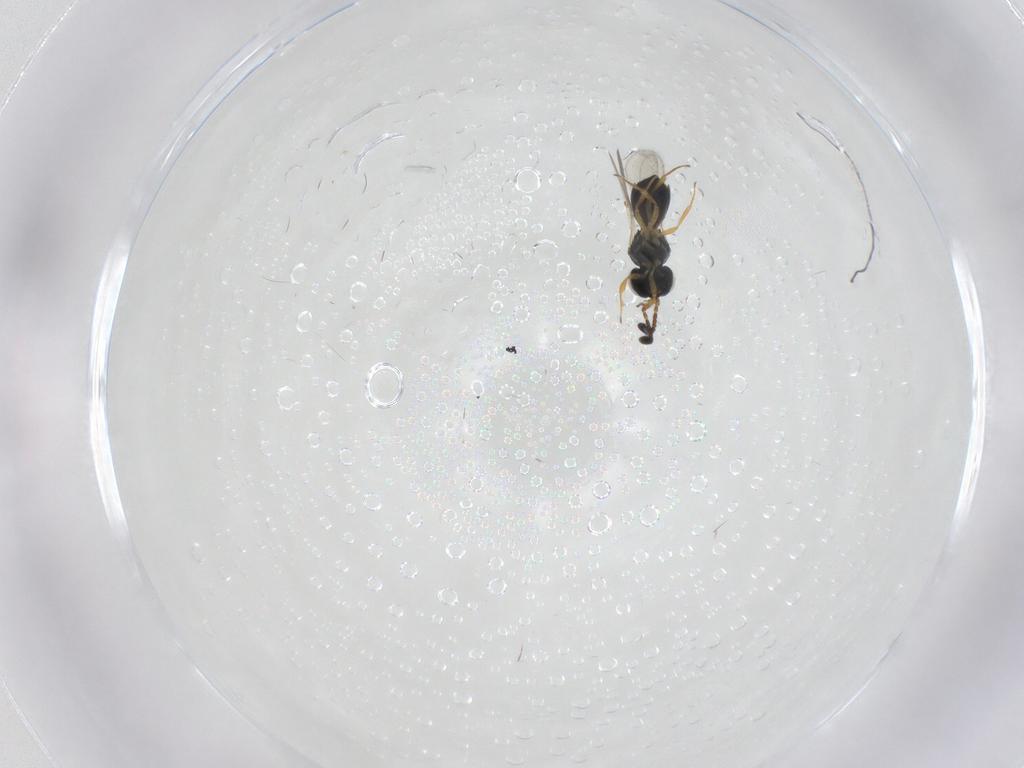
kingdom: Animalia
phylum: Arthropoda
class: Insecta
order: Hymenoptera
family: Scelionidae
